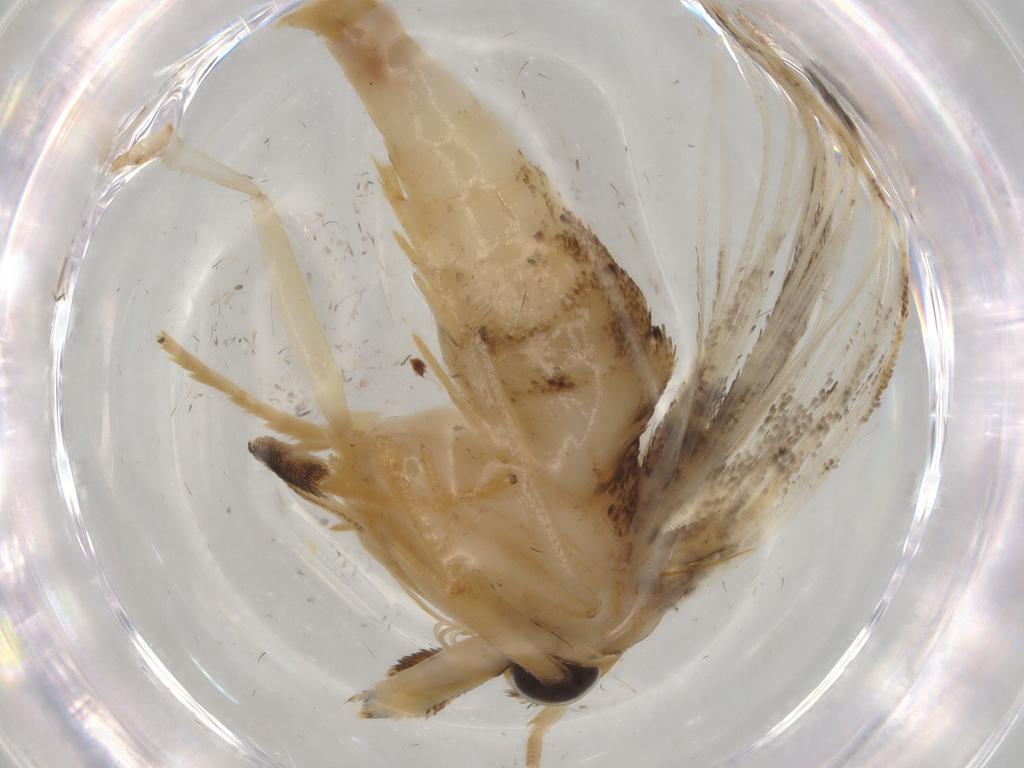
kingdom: Animalia
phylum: Arthropoda
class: Insecta
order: Lepidoptera
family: Gelechiidae
